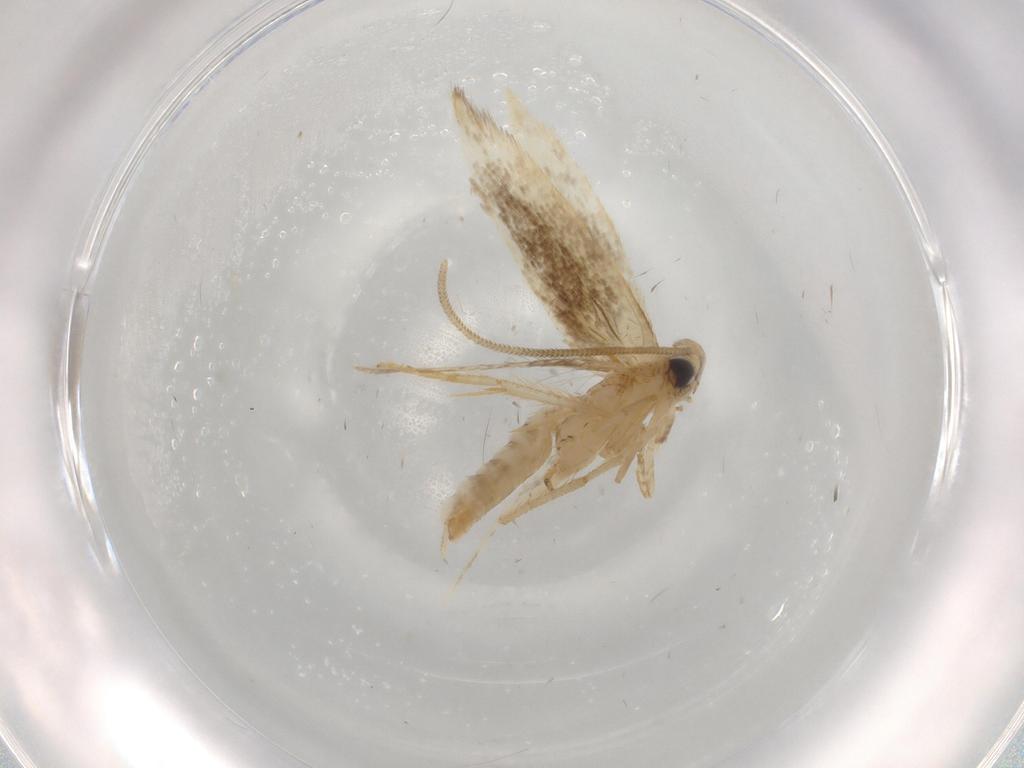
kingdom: Animalia
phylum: Arthropoda
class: Insecta
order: Lepidoptera
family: Opostegidae
